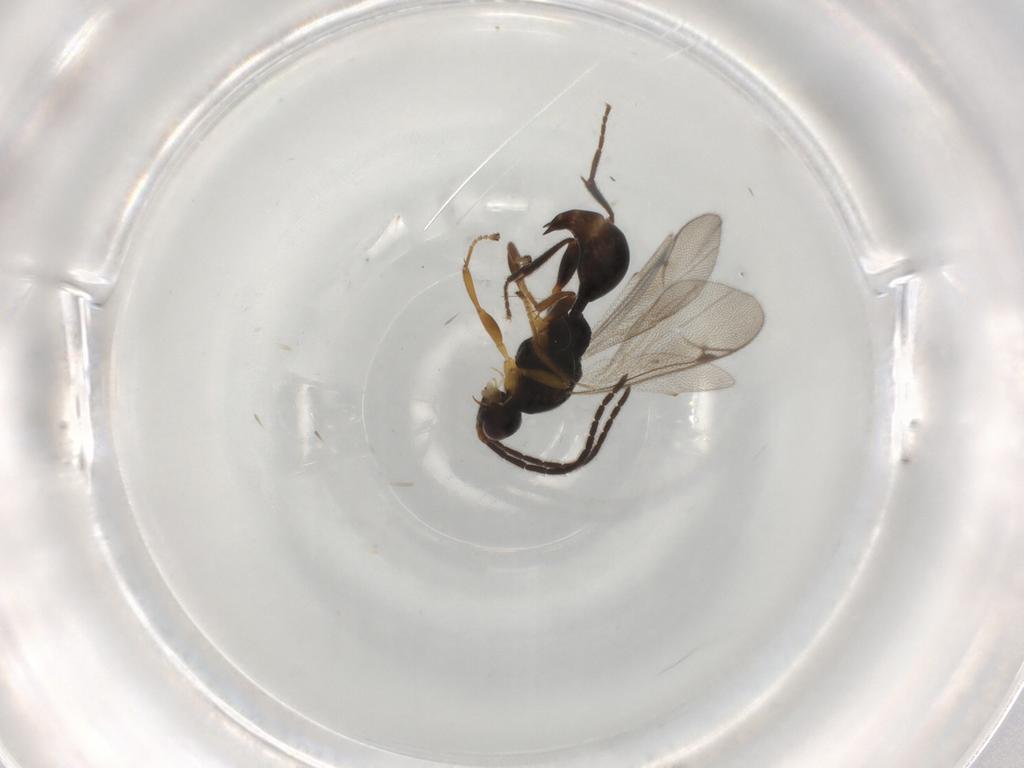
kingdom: Animalia
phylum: Arthropoda
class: Insecta
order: Hymenoptera
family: Proctotrupidae
